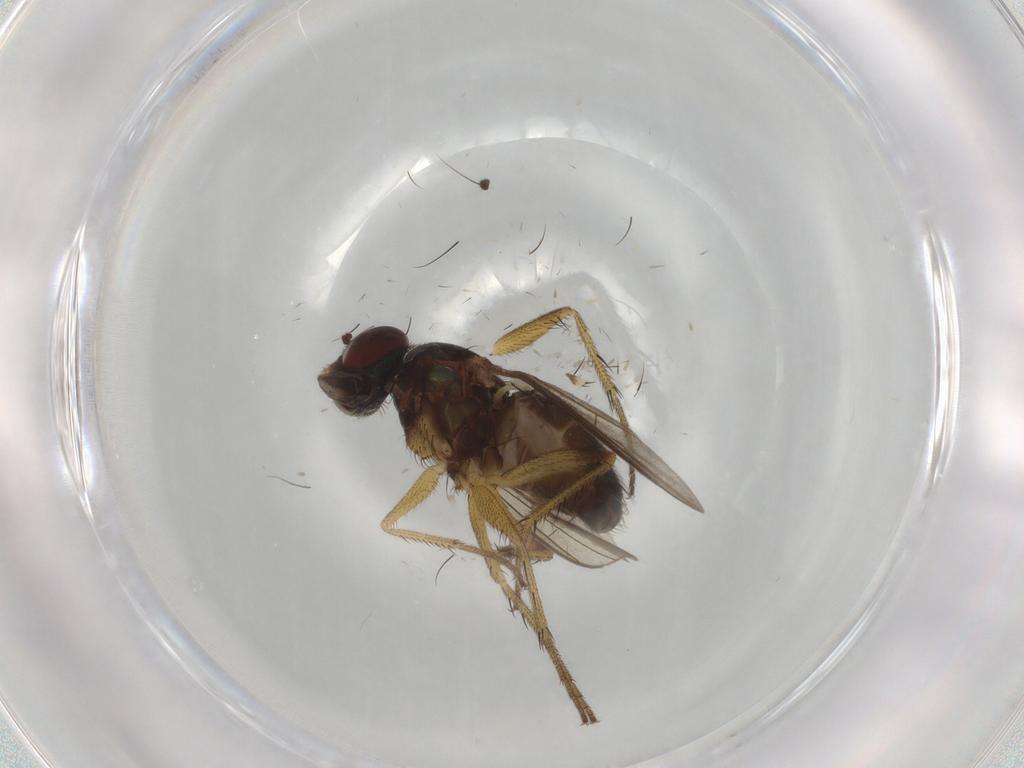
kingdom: Animalia
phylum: Arthropoda
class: Insecta
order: Diptera
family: Dolichopodidae
